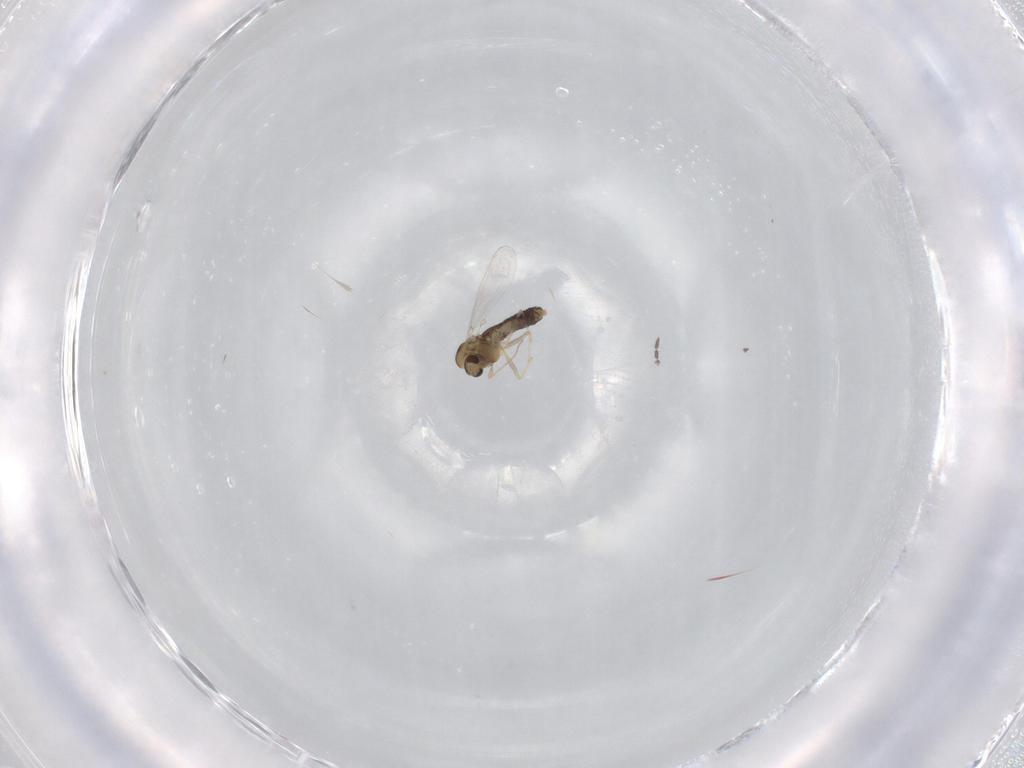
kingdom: Animalia
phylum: Arthropoda
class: Insecta
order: Diptera
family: Chironomidae
